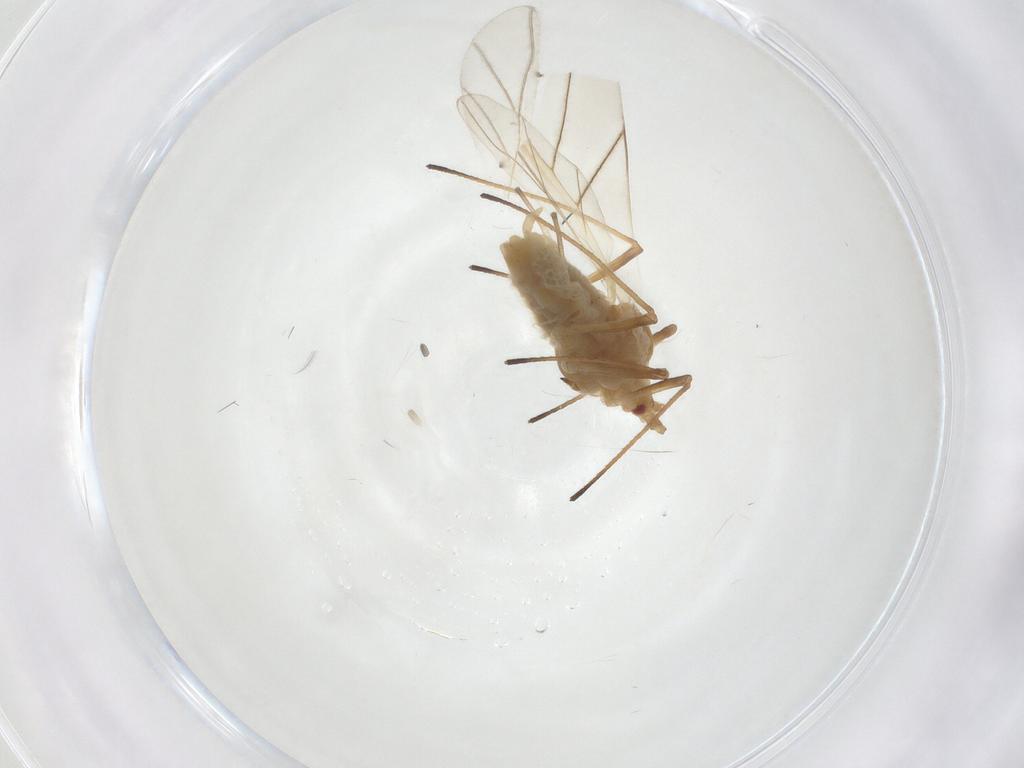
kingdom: Animalia
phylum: Arthropoda
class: Insecta
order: Hemiptera
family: Aphididae
